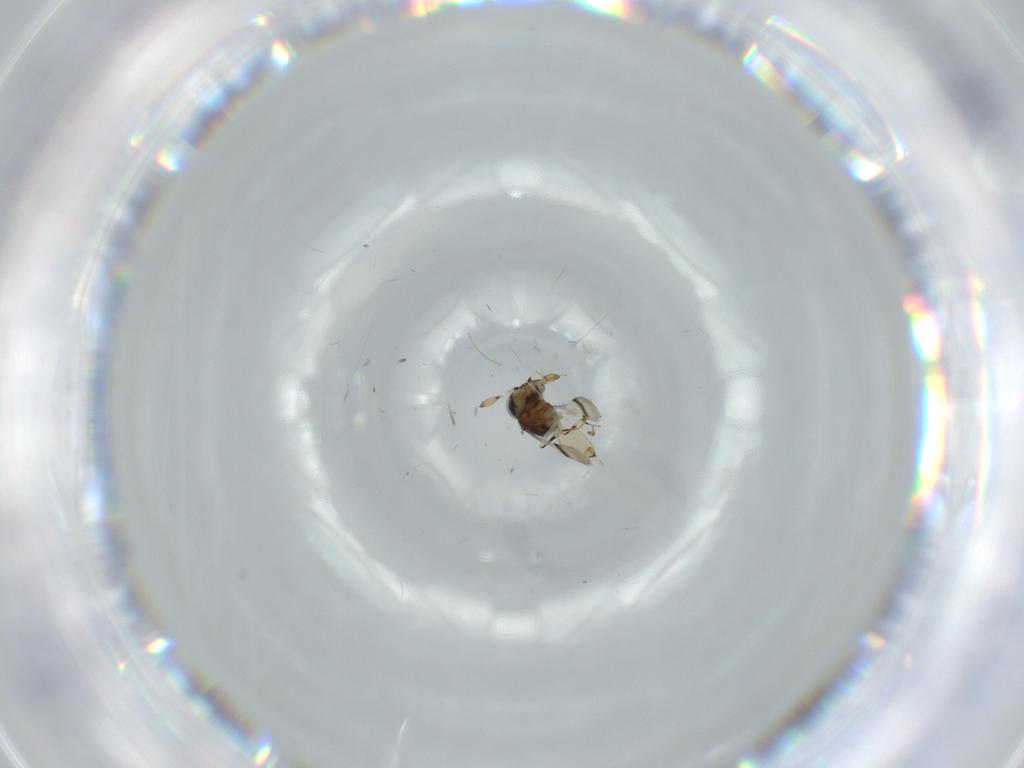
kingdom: Animalia
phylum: Arthropoda
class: Insecta
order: Hymenoptera
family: Scelionidae
